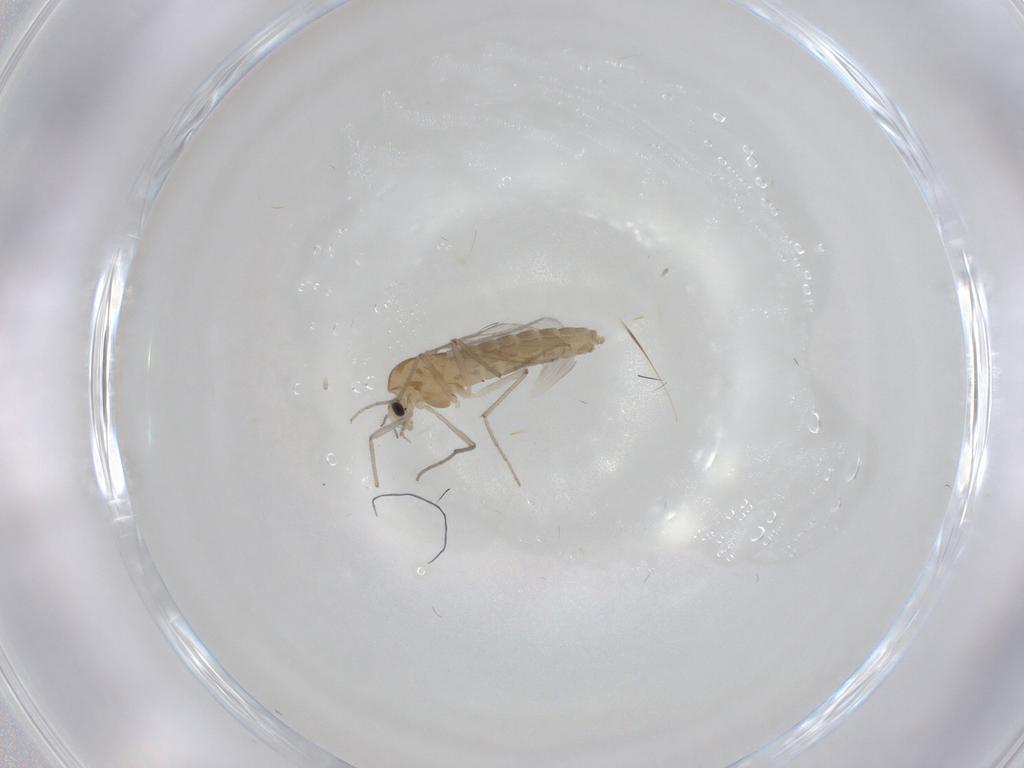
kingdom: Animalia
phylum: Arthropoda
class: Insecta
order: Diptera
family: Chironomidae
